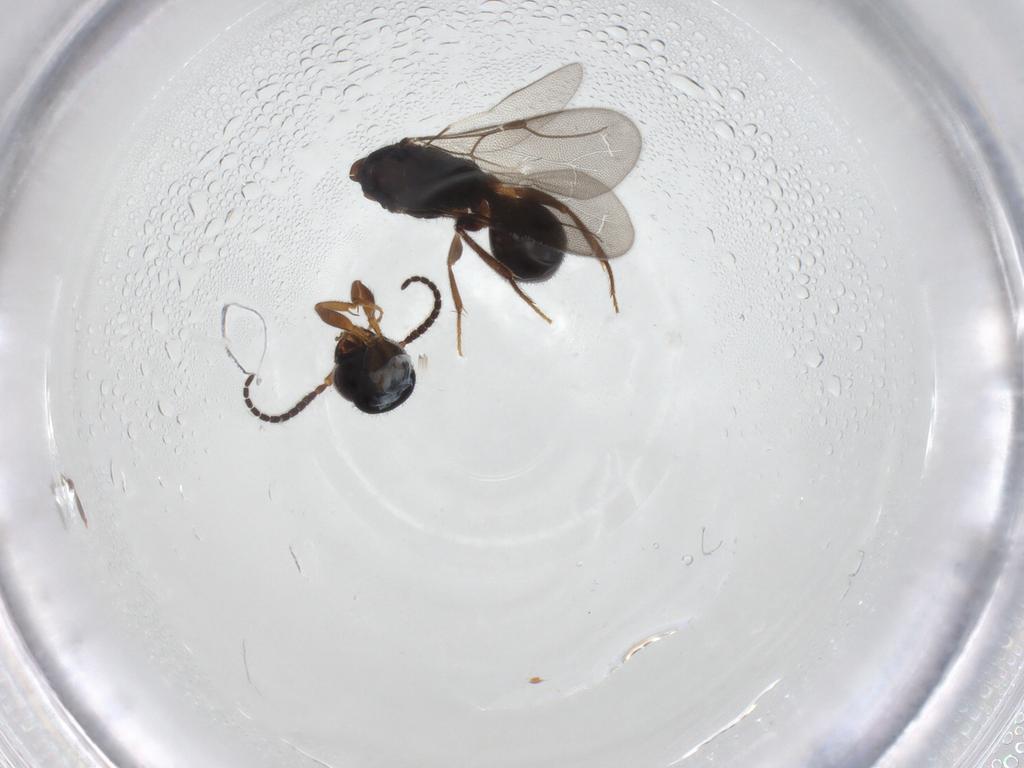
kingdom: Animalia
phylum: Arthropoda
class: Insecta
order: Hymenoptera
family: Bethylidae
